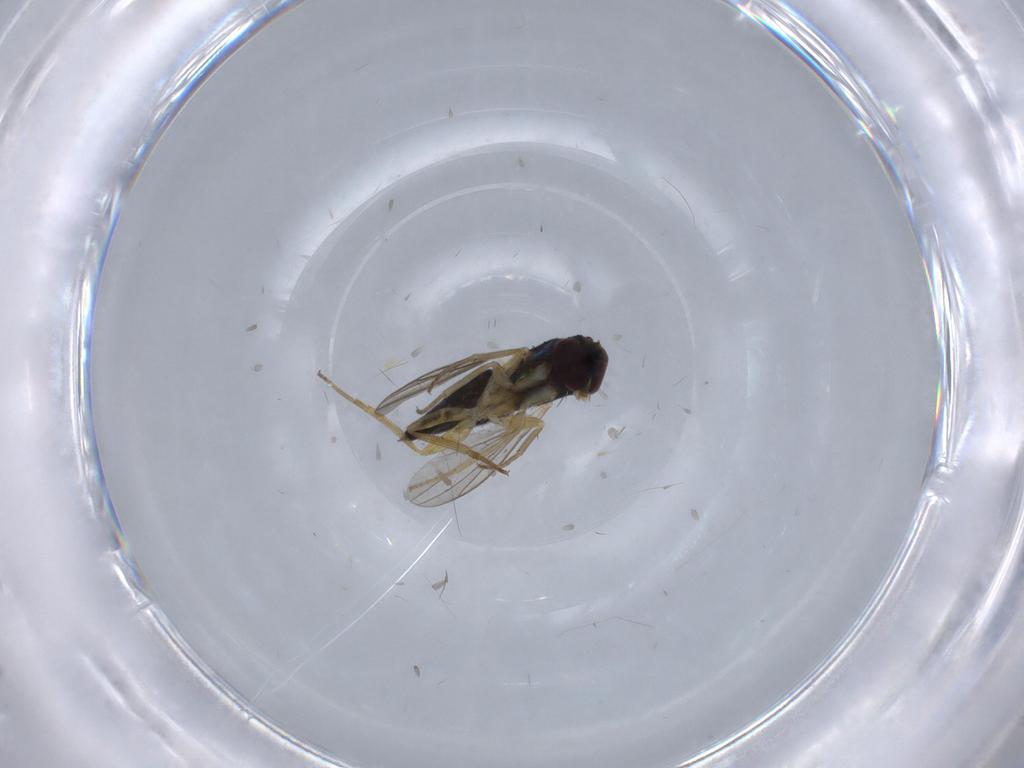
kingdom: Animalia
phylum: Arthropoda
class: Insecta
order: Diptera
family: Dolichopodidae
